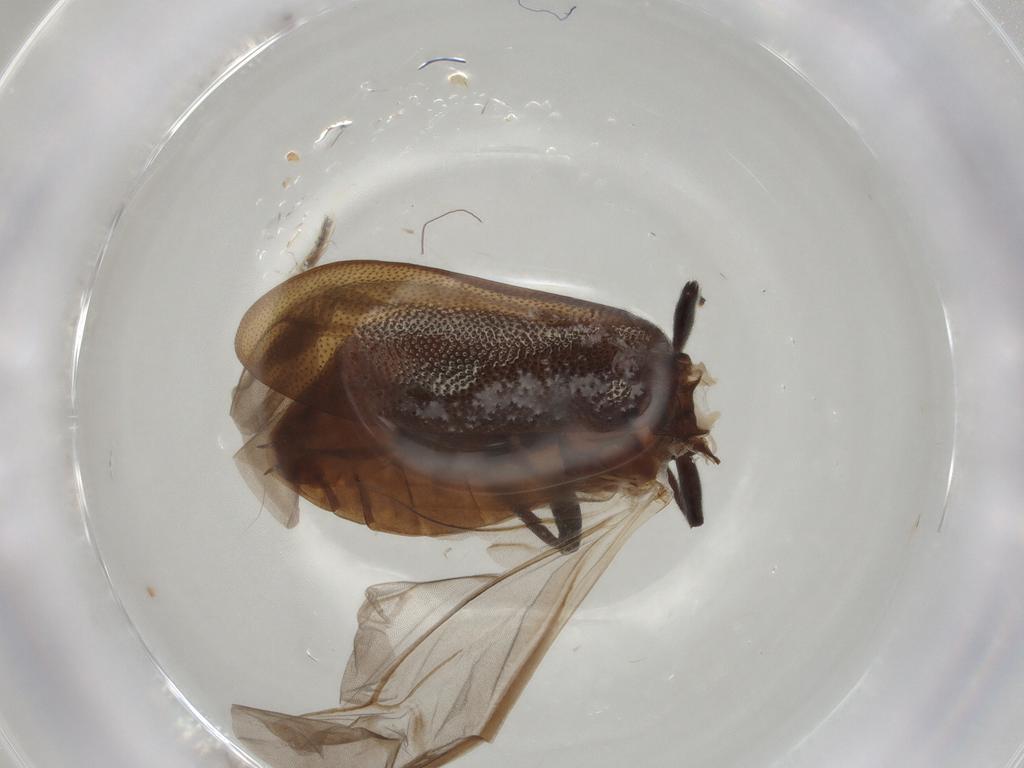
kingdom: Animalia
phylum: Arthropoda
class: Insecta
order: Coleoptera
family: Tenebrionidae
